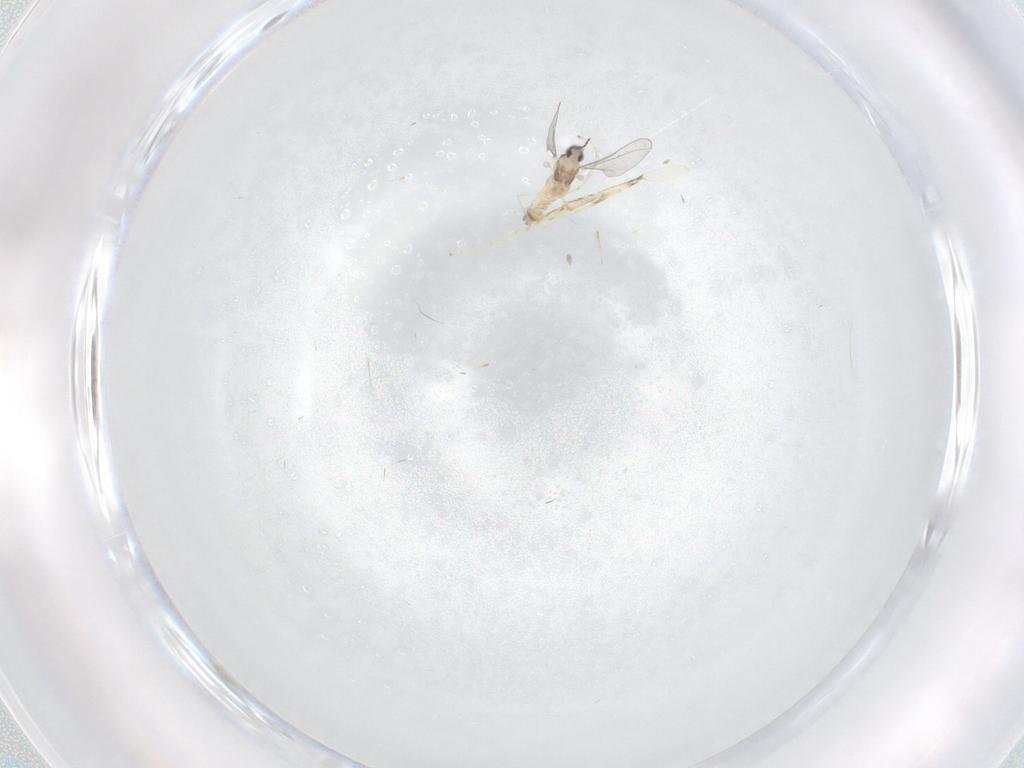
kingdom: Animalia
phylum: Arthropoda
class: Insecta
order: Diptera
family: Cecidomyiidae
